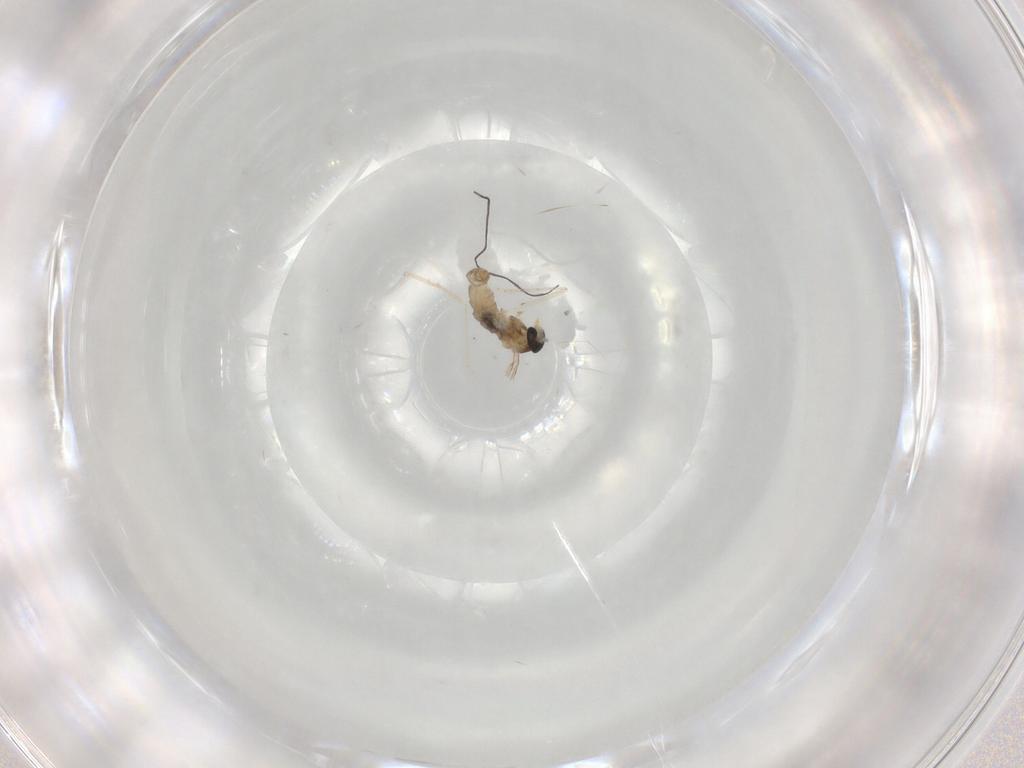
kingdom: Animalia
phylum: Arthropoda
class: Insecta
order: Diptera
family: Cecidomyiidae
